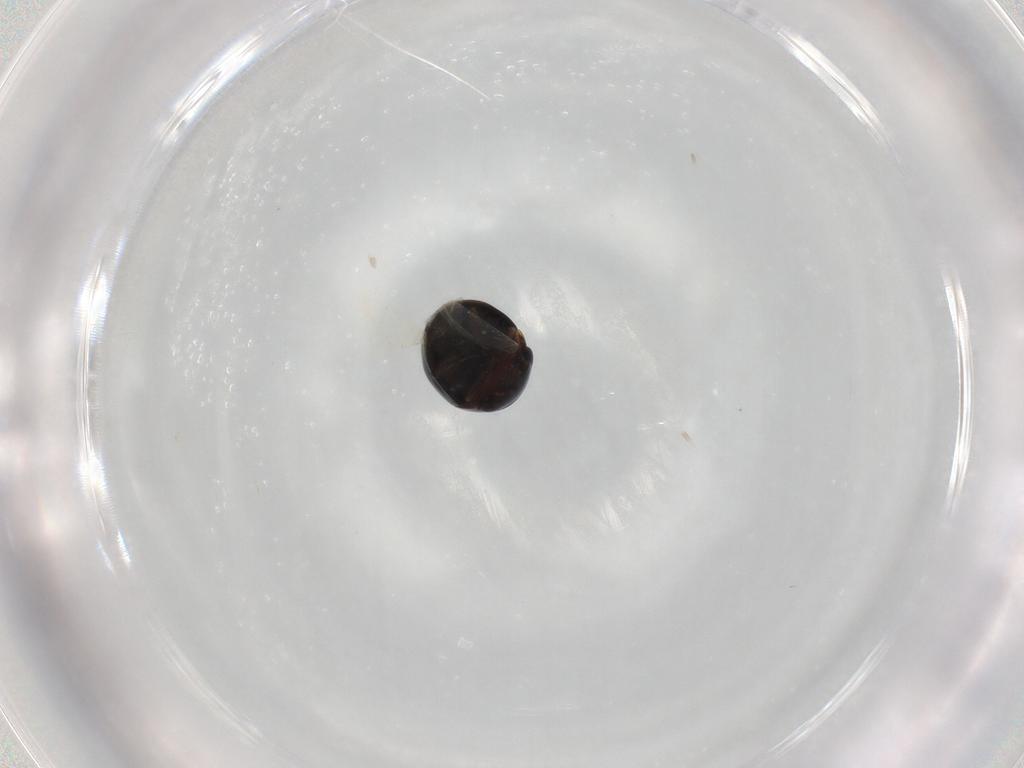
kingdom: Animalia
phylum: Arthropoda
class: Insecta
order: Coleoptera
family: Cybocephalidae
